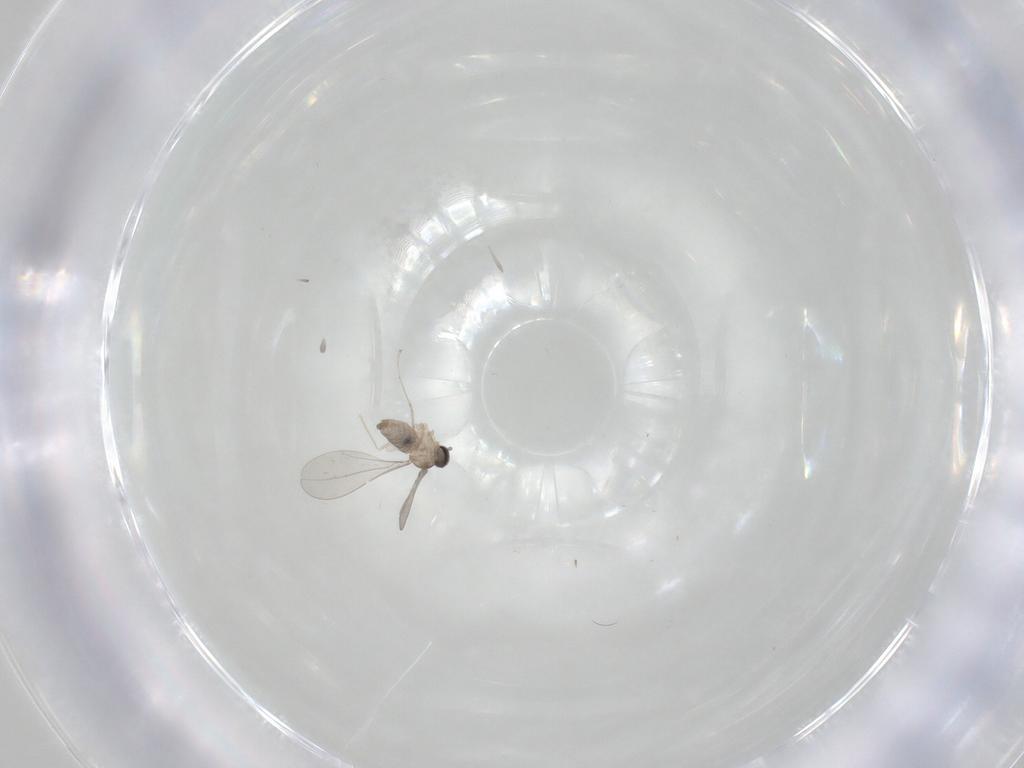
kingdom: Animalia
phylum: Arthropoda
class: Insecta
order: Diptera
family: Cecidomyiidae
